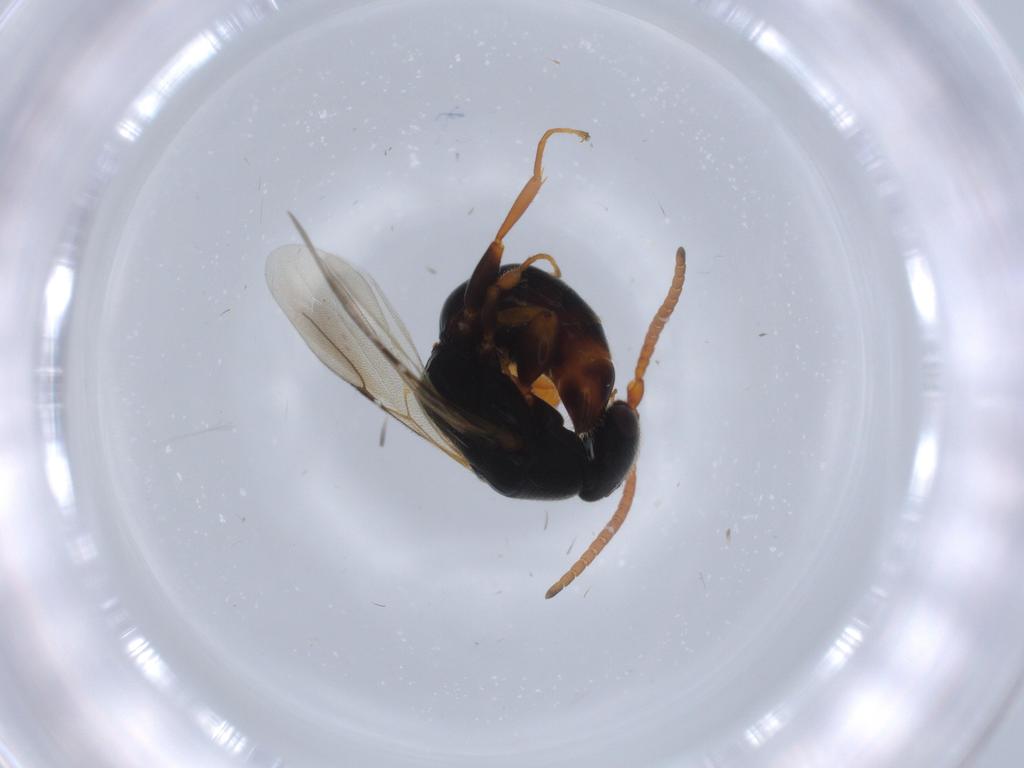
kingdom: Animalia
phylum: Arthropoda
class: Insecta
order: Hymenoptera
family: Bethylidae
